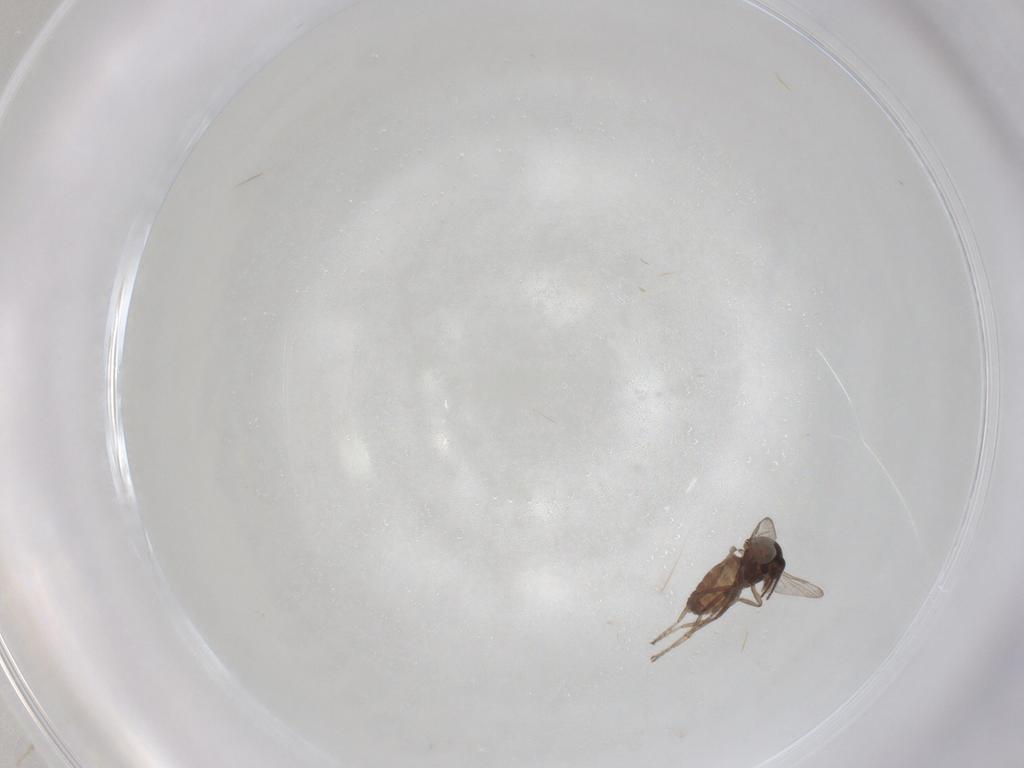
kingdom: Animalia
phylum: Arthropoda
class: Insecta
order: Diptera
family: Ceratopogonidae
